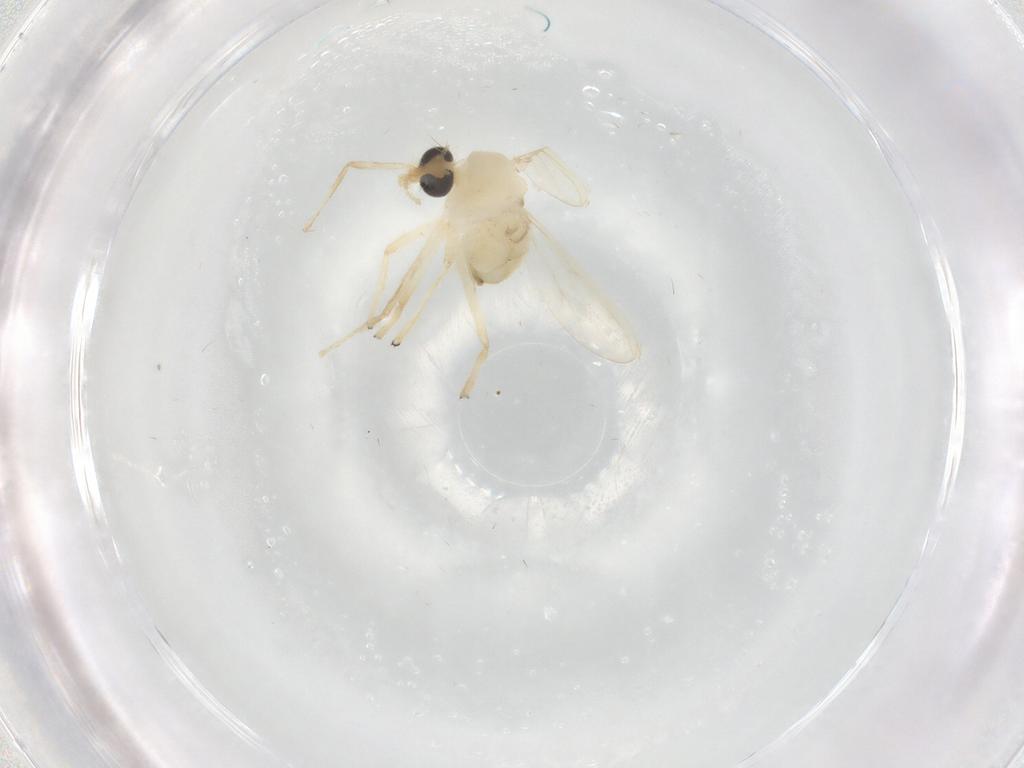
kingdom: Animalia
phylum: Arthropoda
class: Insecta
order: Diptera
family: Chironomidae
